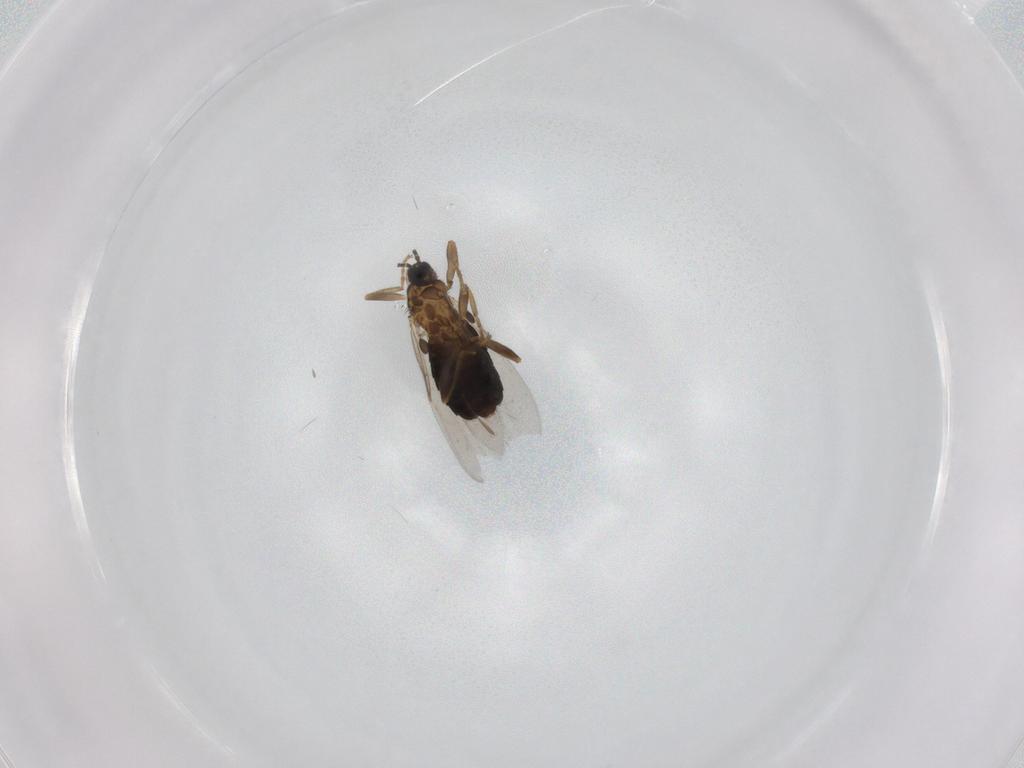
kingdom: Animalia
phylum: Arthropoda
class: Insecta
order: Diptera
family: Scatopsidae
